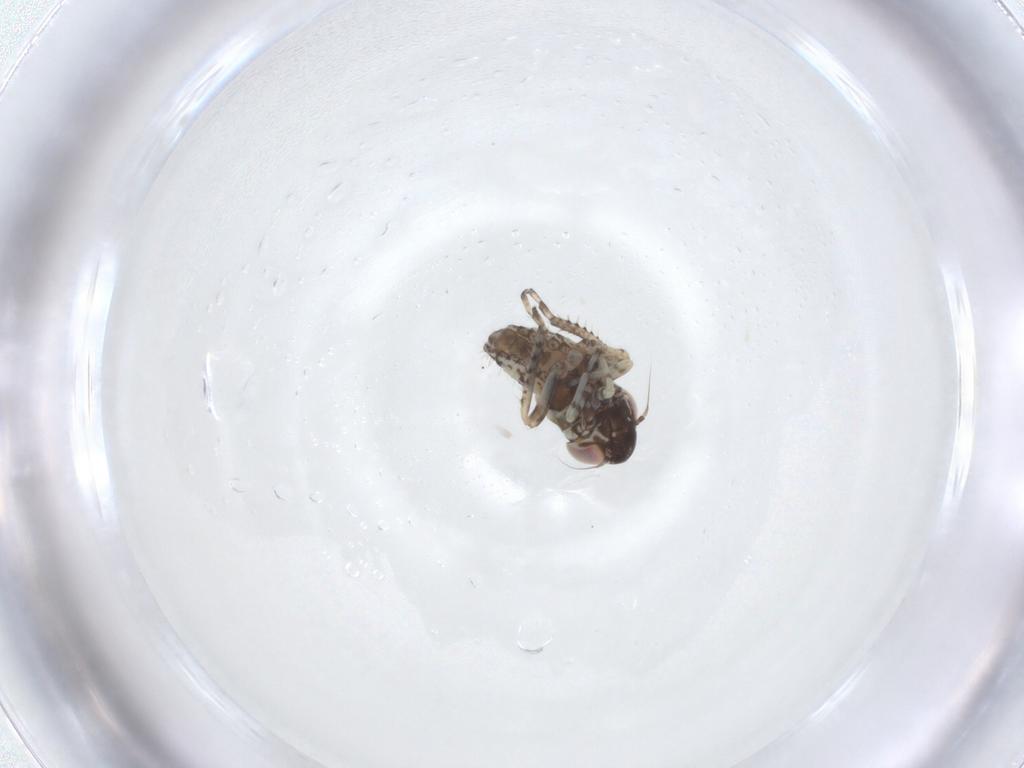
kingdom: Animalia
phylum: Arthropoda
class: Insecta
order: Hemiptera
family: Cicadellidae
